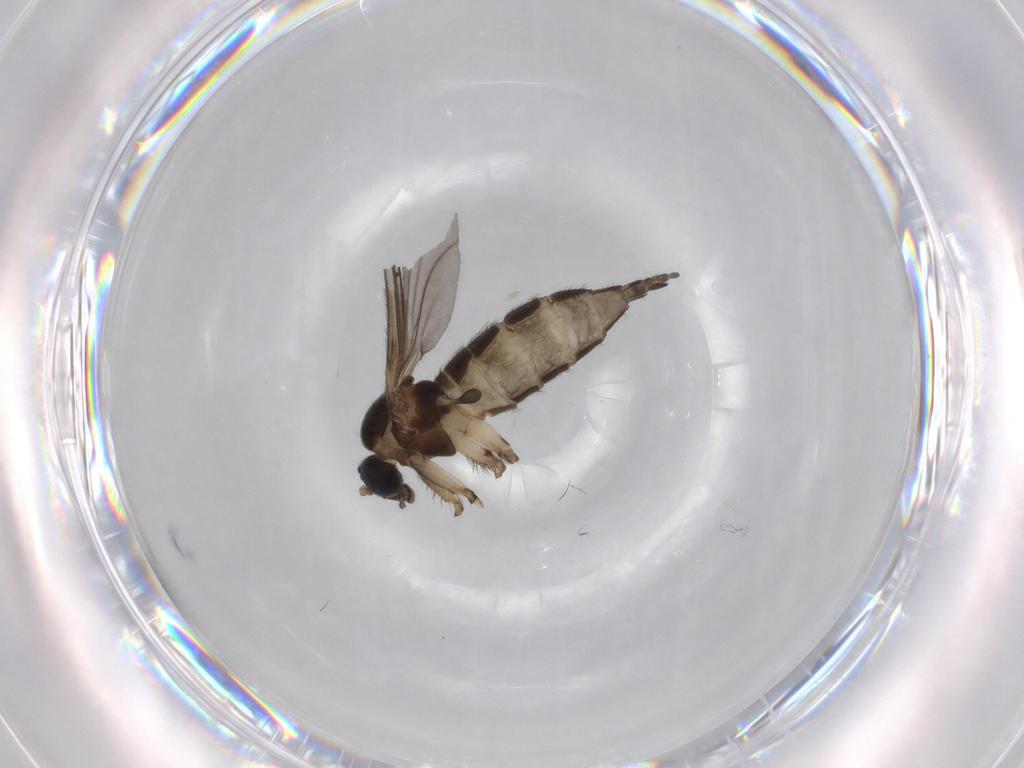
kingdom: Animalia
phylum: Arthropoda
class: Insecta
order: Diptera
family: Sciaridae
